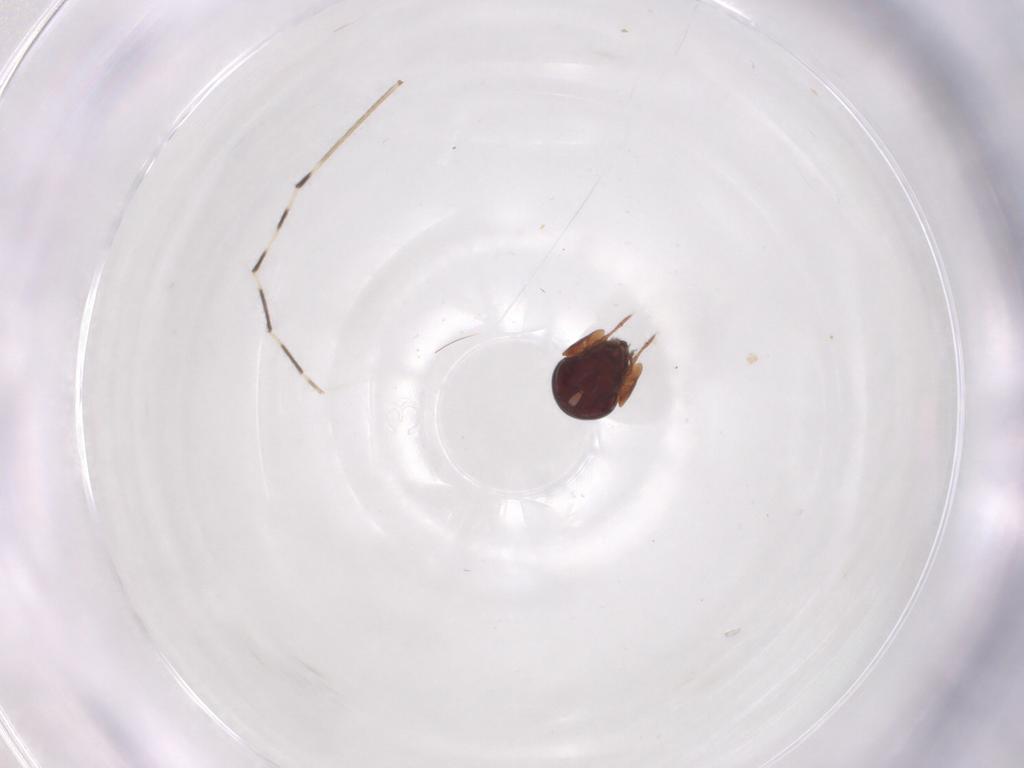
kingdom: Animalia
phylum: Arthropoda
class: Arachnida
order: Sarcoptiformes
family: Galumnidae
